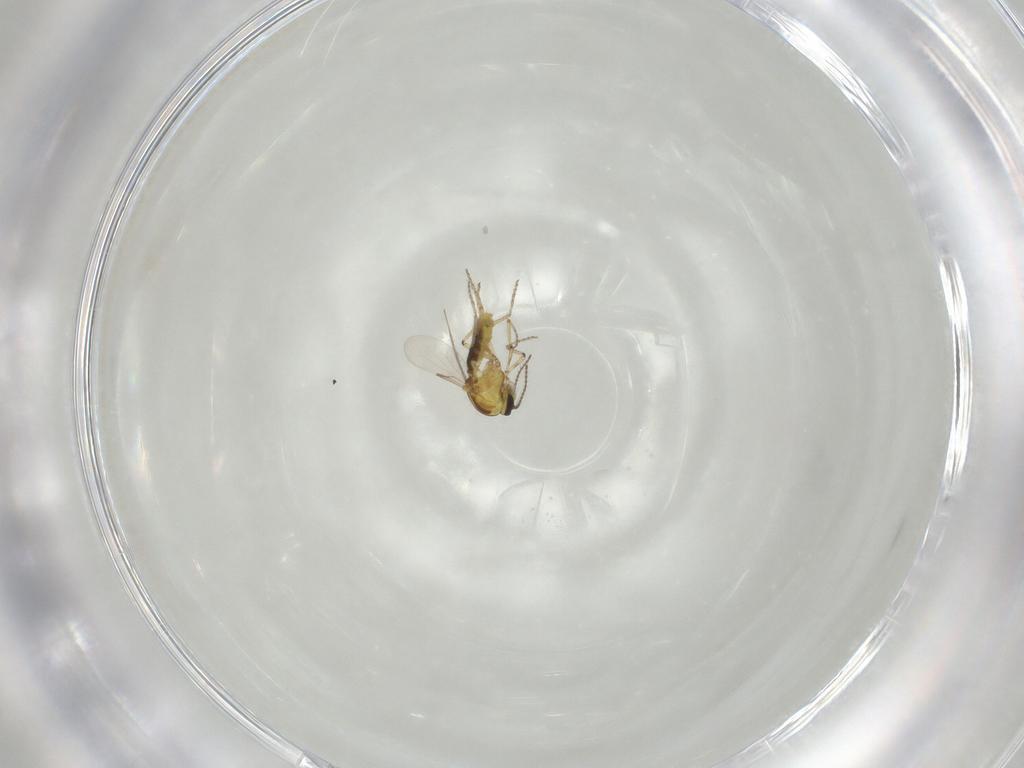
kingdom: Animalia
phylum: Arthropoda
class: Insecta
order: Diptera
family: Ceratopogonidae
